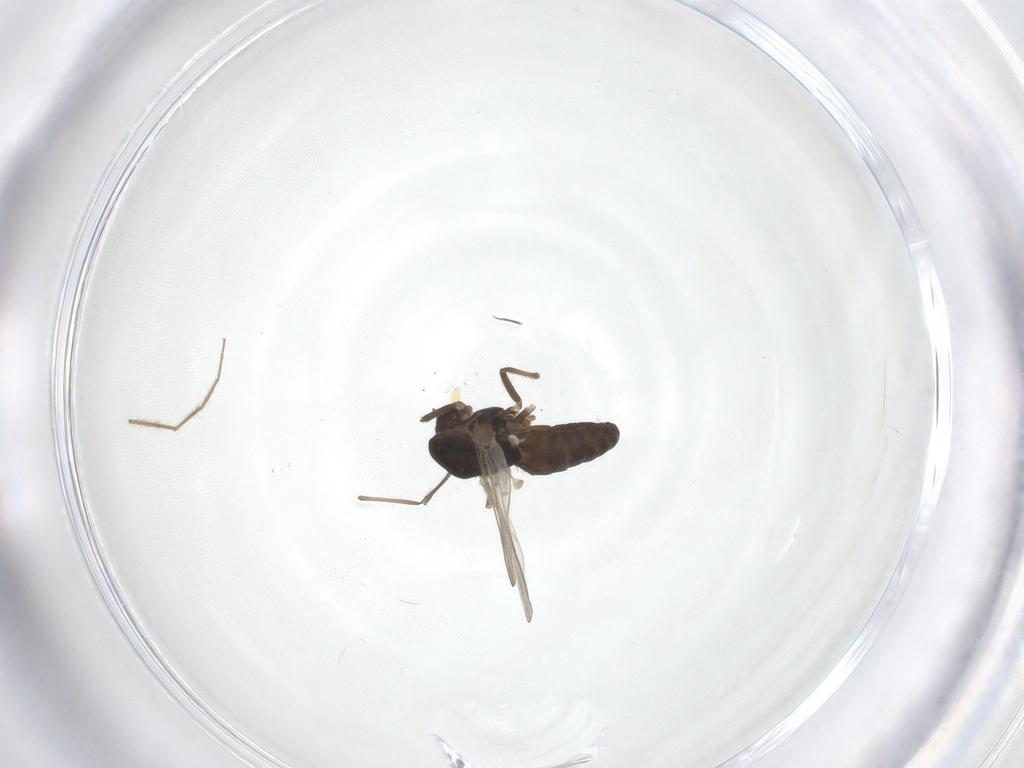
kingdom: Animalia
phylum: Arthropoda
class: Insecta
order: Diptera
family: Chironomidae
